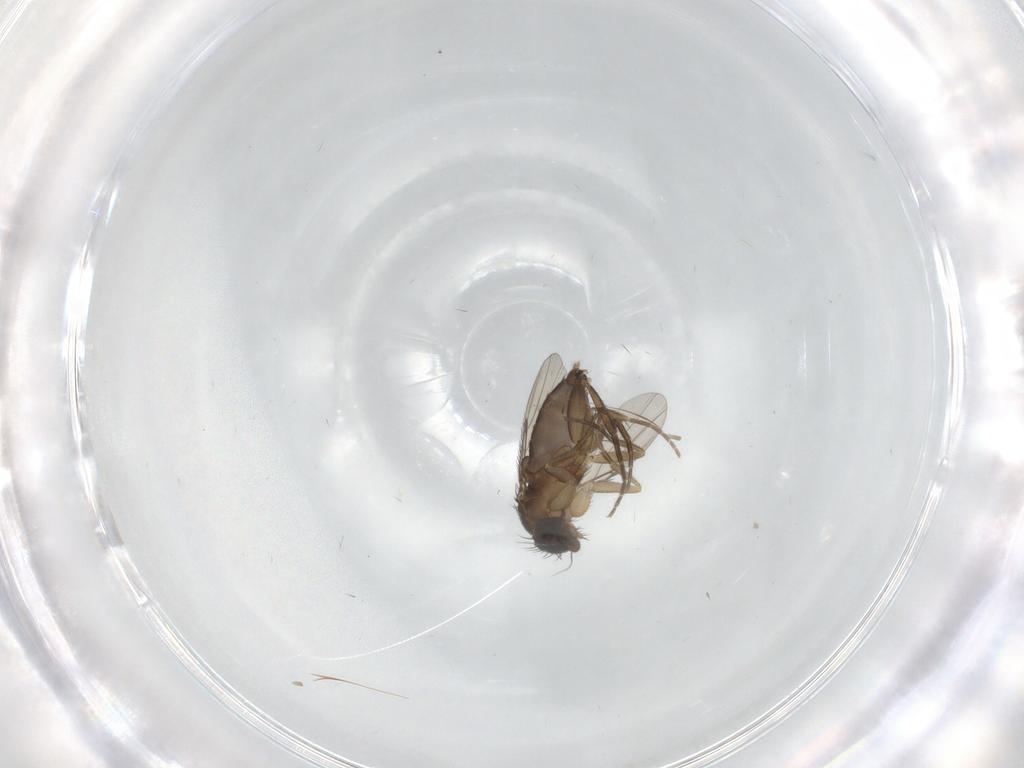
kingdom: Animalia
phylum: Arthropoda
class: Insecta
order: Diptera
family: Phoridae
